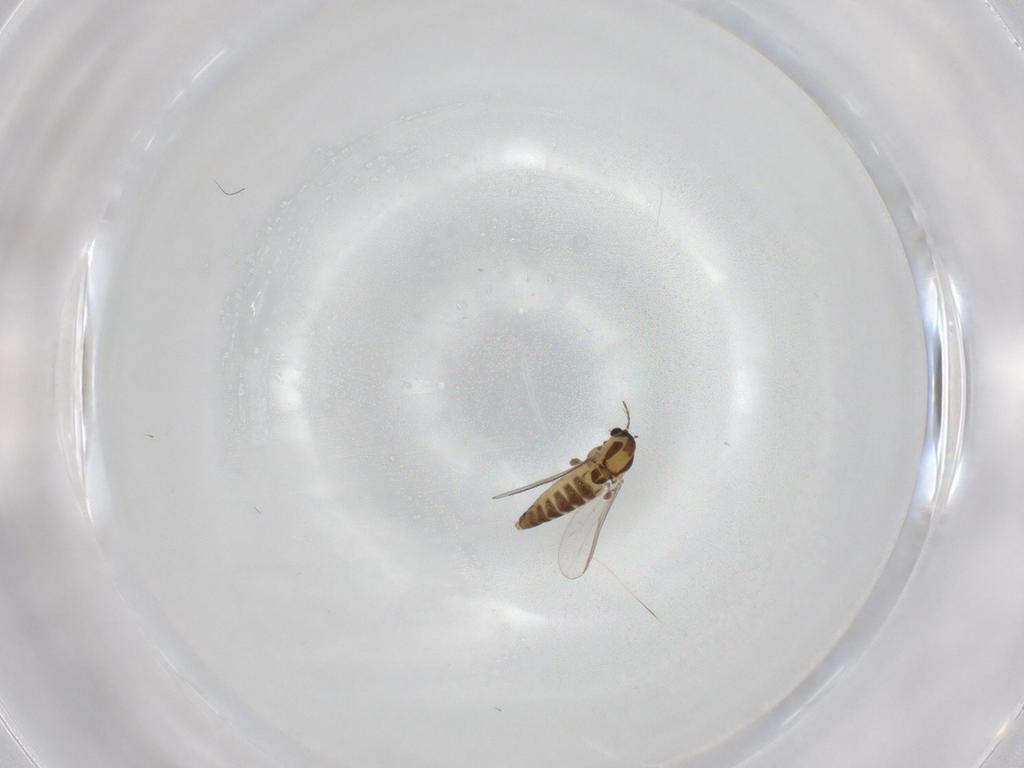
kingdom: Animalia
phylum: Arthropoda
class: Insecta
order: Diptera
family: Chironomidae
